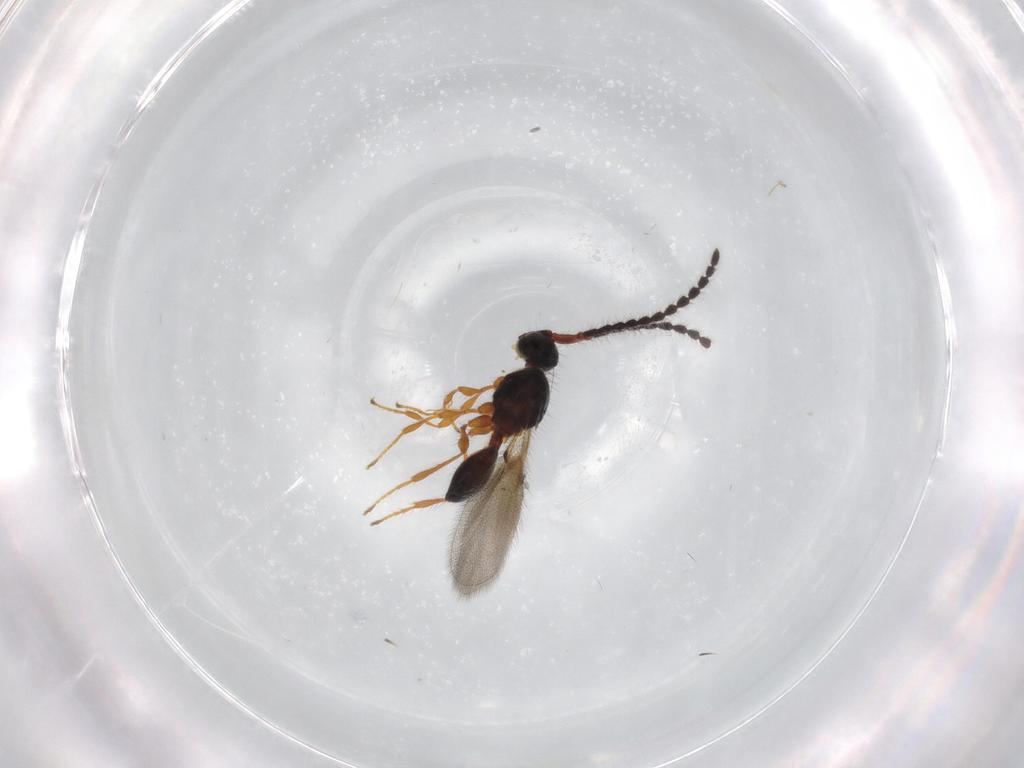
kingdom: Animalia
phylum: Arthropoda
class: Insecta
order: Hymenoptera
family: Diapriidae
